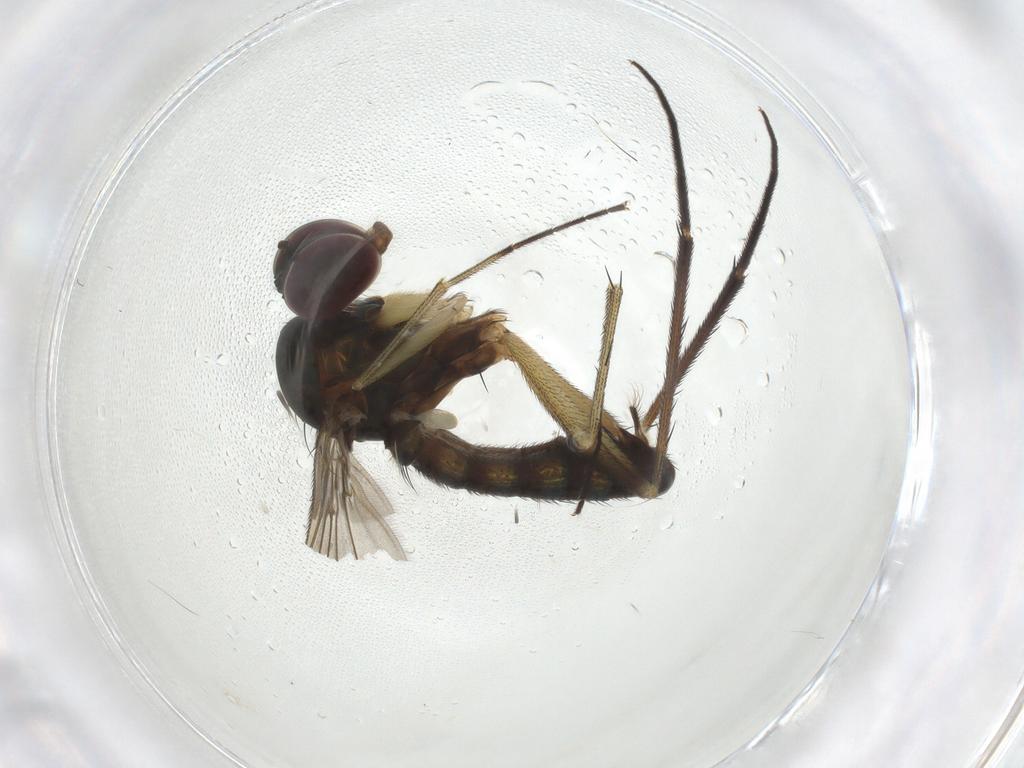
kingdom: Animalia
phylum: Arthropoda
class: Insecta
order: Diptera
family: Dolichopodidae
